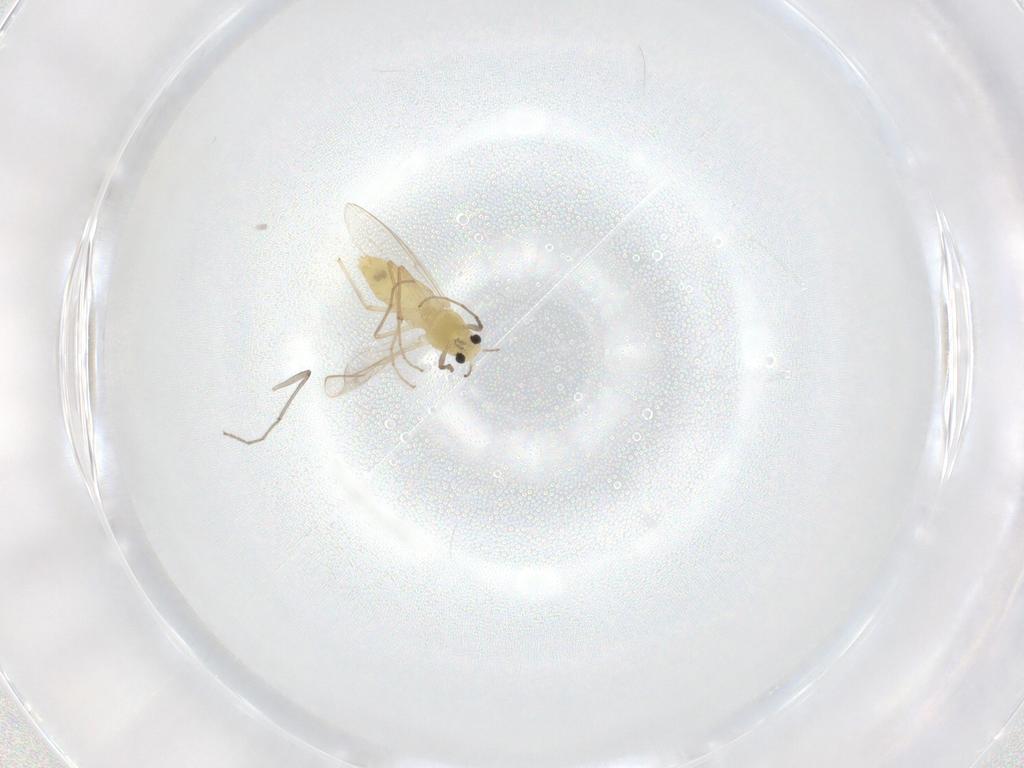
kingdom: Animalia
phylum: Arthropoda
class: Insecta
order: Diptera
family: Chironomidae
